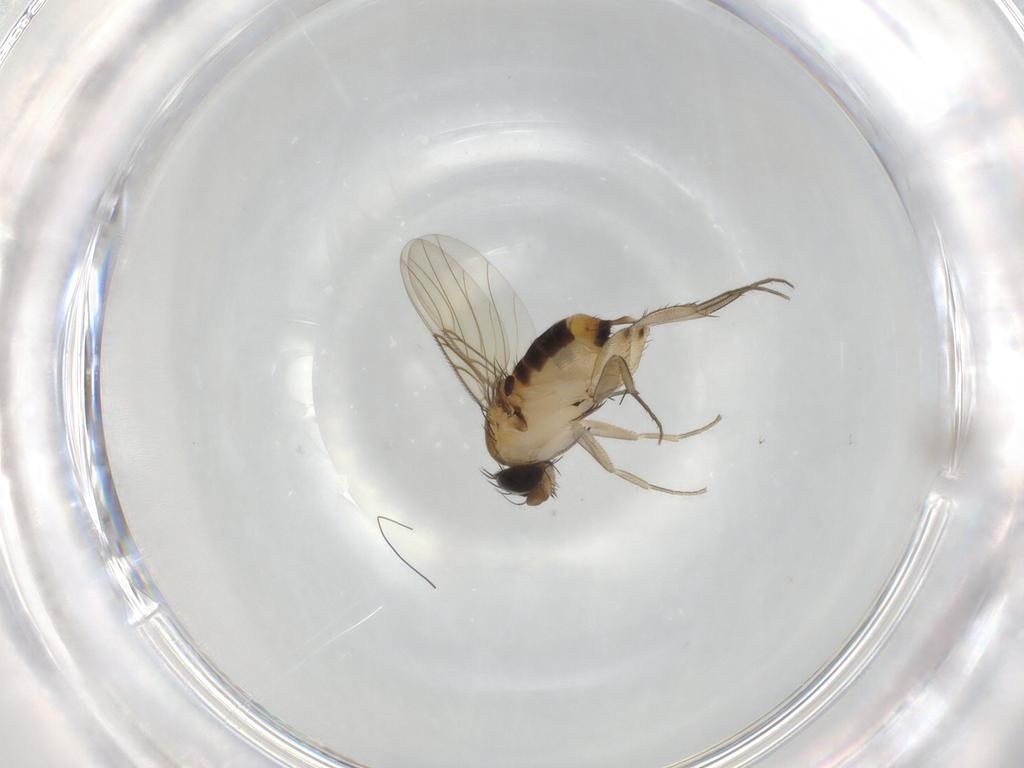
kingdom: Animalia
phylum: Arthropoda
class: Insecta
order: Diptera
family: Phoridae
